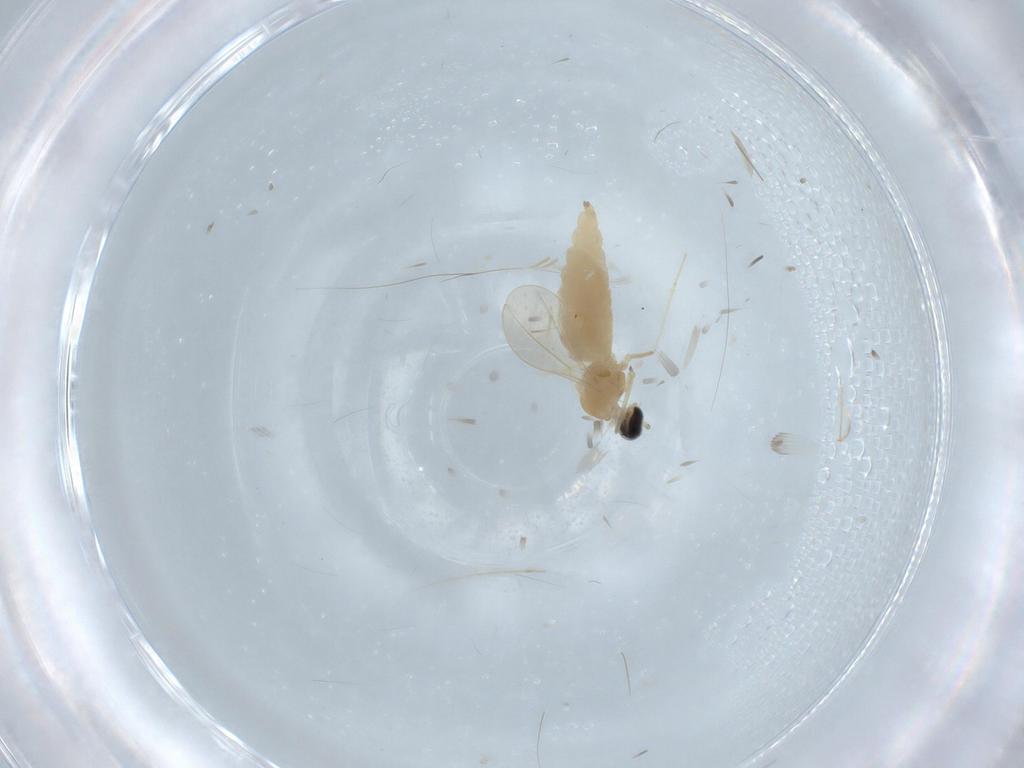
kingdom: Animalia
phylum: Arthropoda
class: Insecta
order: Diptera
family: Cecidomyiidae
